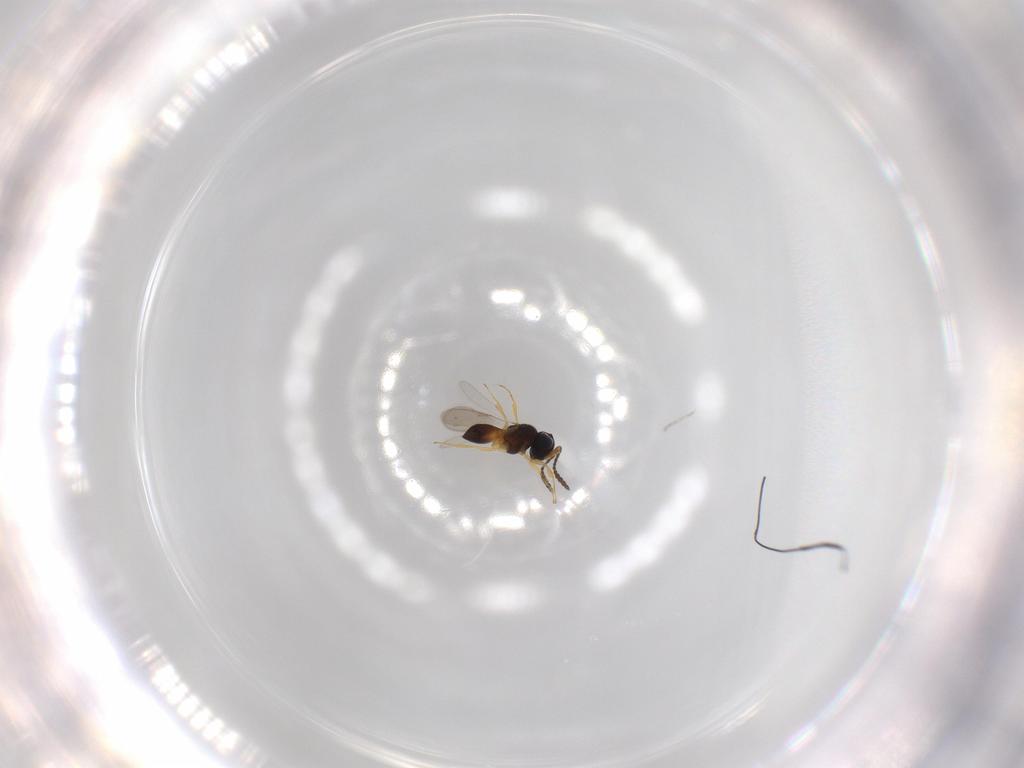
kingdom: Animalia
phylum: Arthropoda
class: Insecta
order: Hymenoptera
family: Scelionidae
